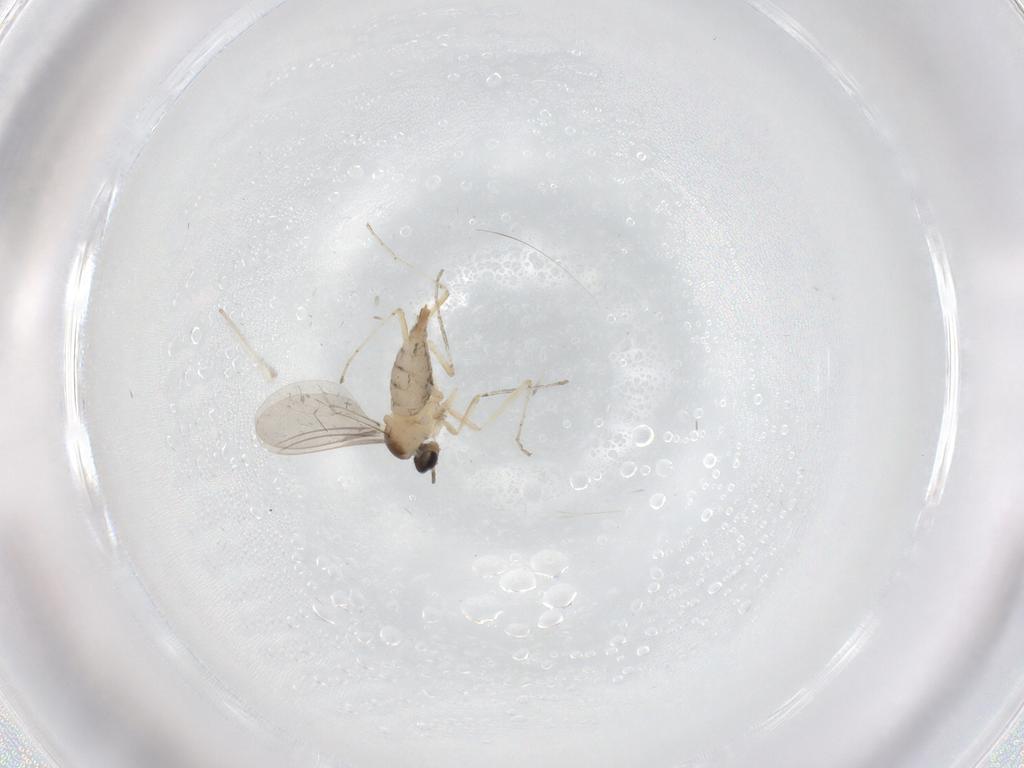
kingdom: Animalia
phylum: Arthropoda
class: Insecta
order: Diptera
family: Cecidomyiidae
